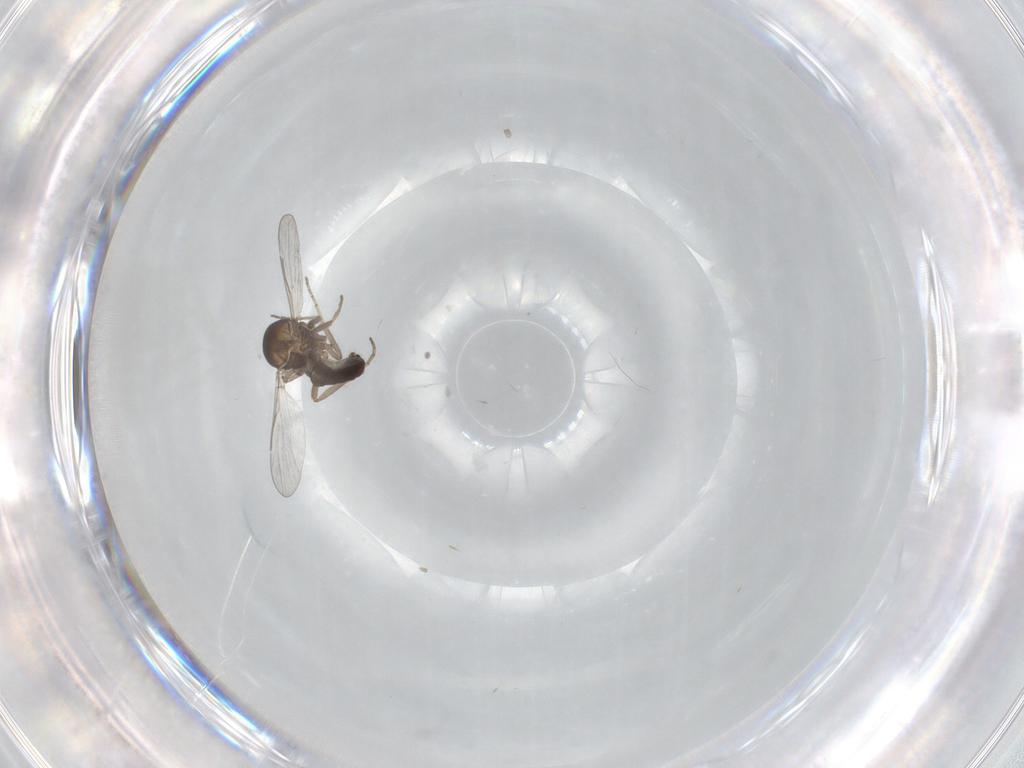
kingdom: Animalia
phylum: Arthropoda
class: Insecta
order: Diptera
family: Ceratopogonidae
